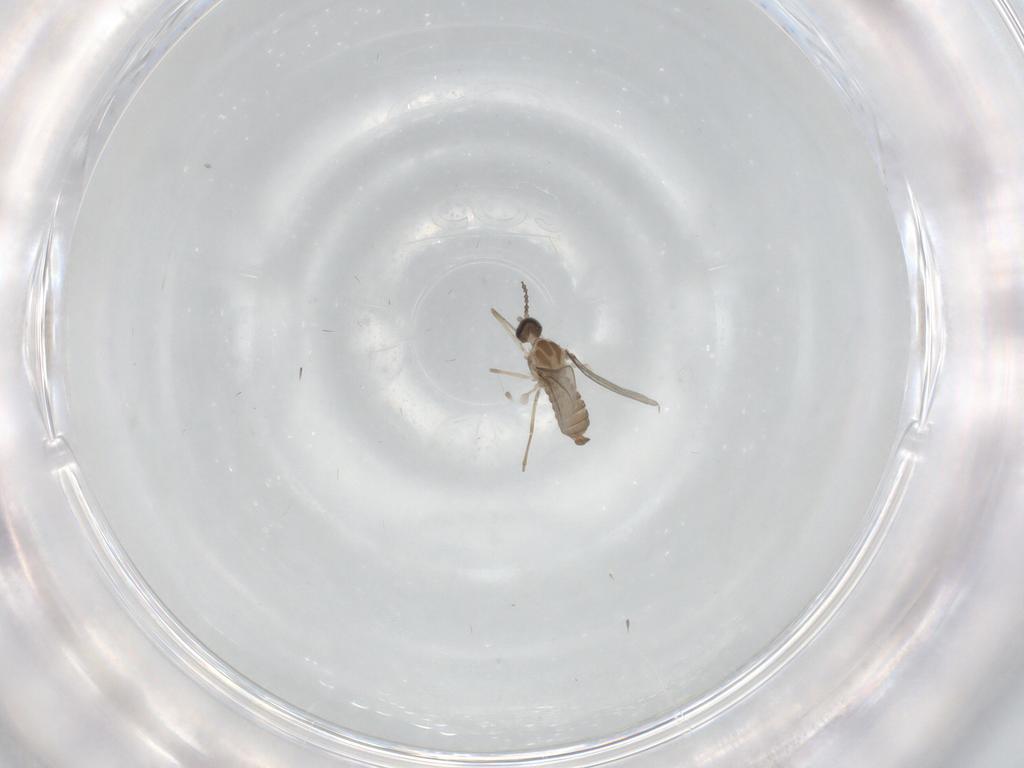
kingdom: Animalia
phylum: Arthropoda
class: Insecta
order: Diptera
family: Cecidomyiidae
